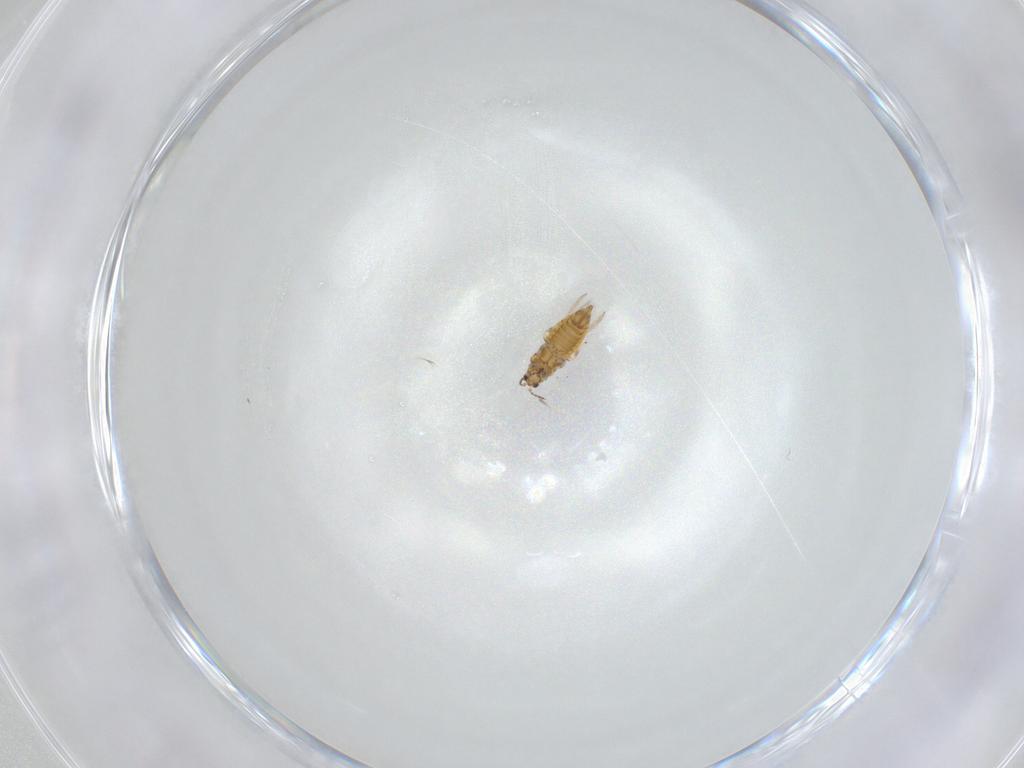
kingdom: Animalia
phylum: Arthropoda
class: Insecta
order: Thysanoptera
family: Thripidae
